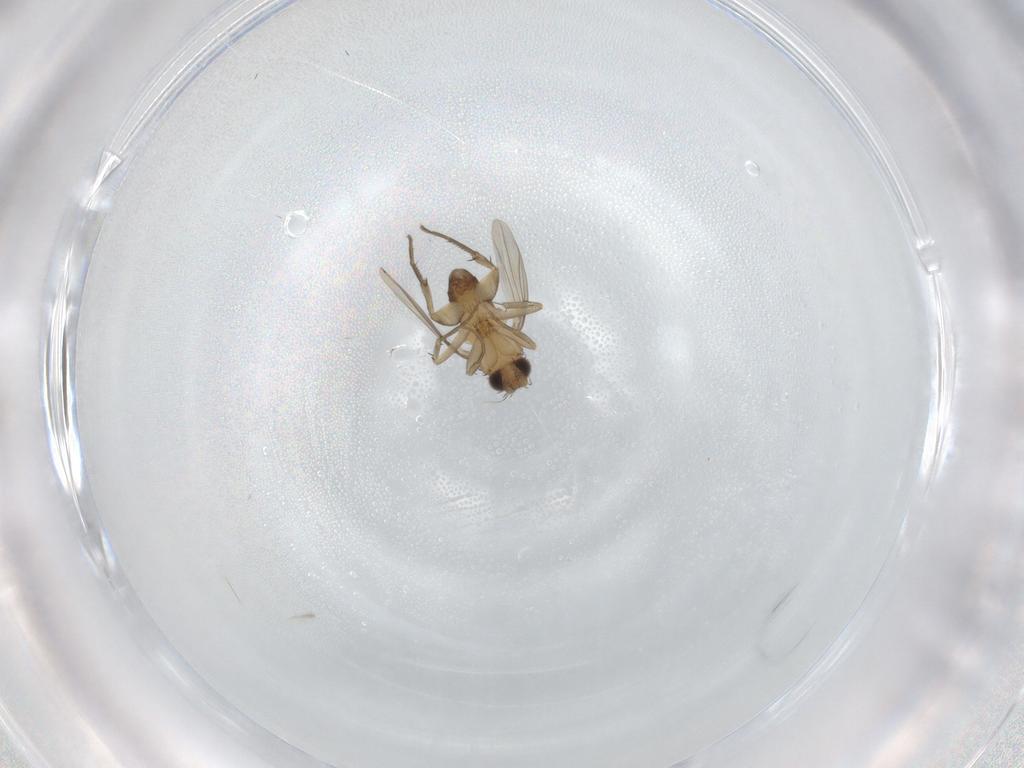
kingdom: Animalia
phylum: Arthropoda
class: Insecta
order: Diptera
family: Phoridae
